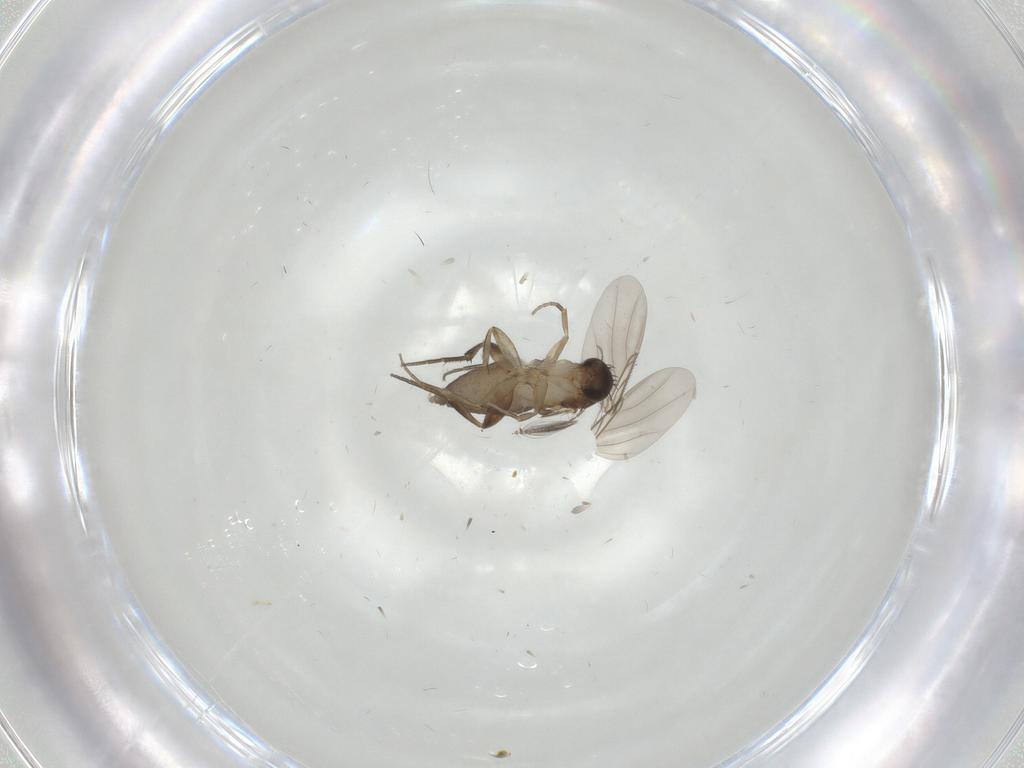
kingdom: Animalia
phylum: Arthropoda
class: Insecta
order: Diptera
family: Phoridae
